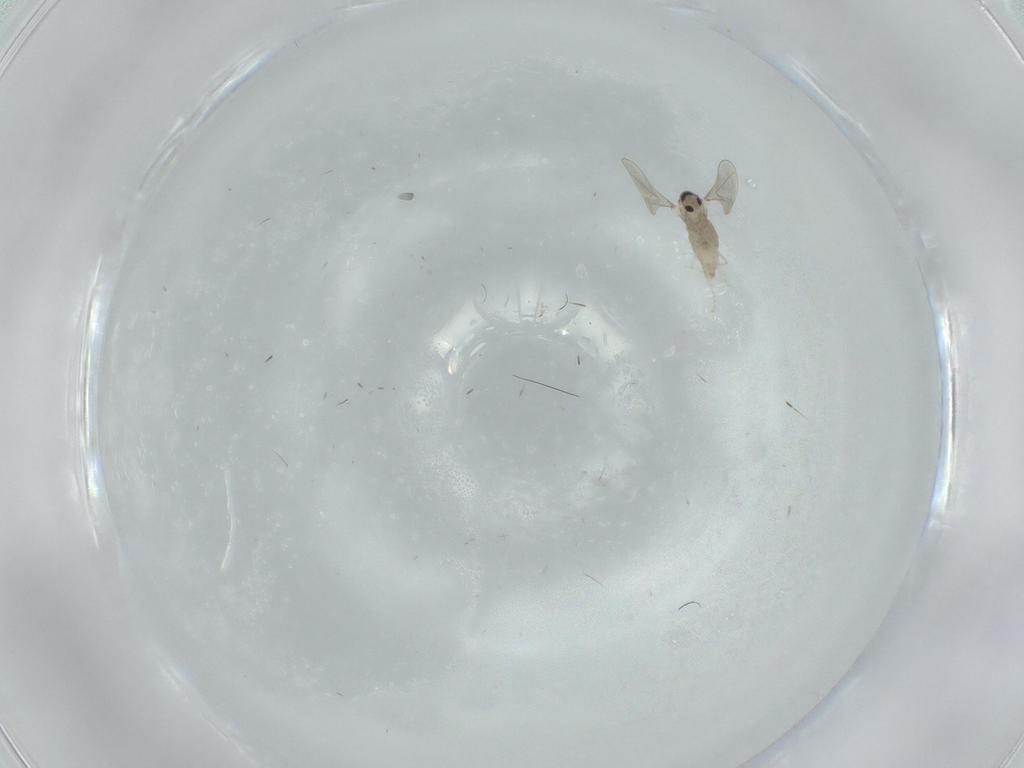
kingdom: Animalia
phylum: Arthropoda
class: Insecta
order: Diptera
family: Cecidomyiidae
